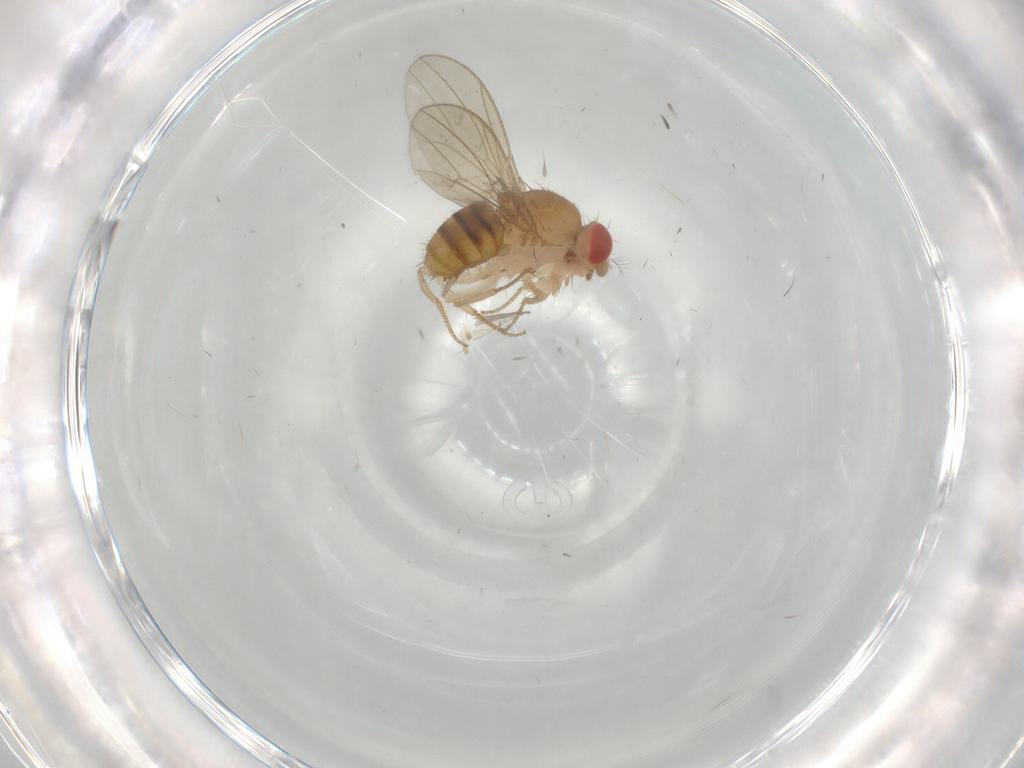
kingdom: Animalia
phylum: Arthropoda
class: Insecta
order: Diptera
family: Drosophilidae
